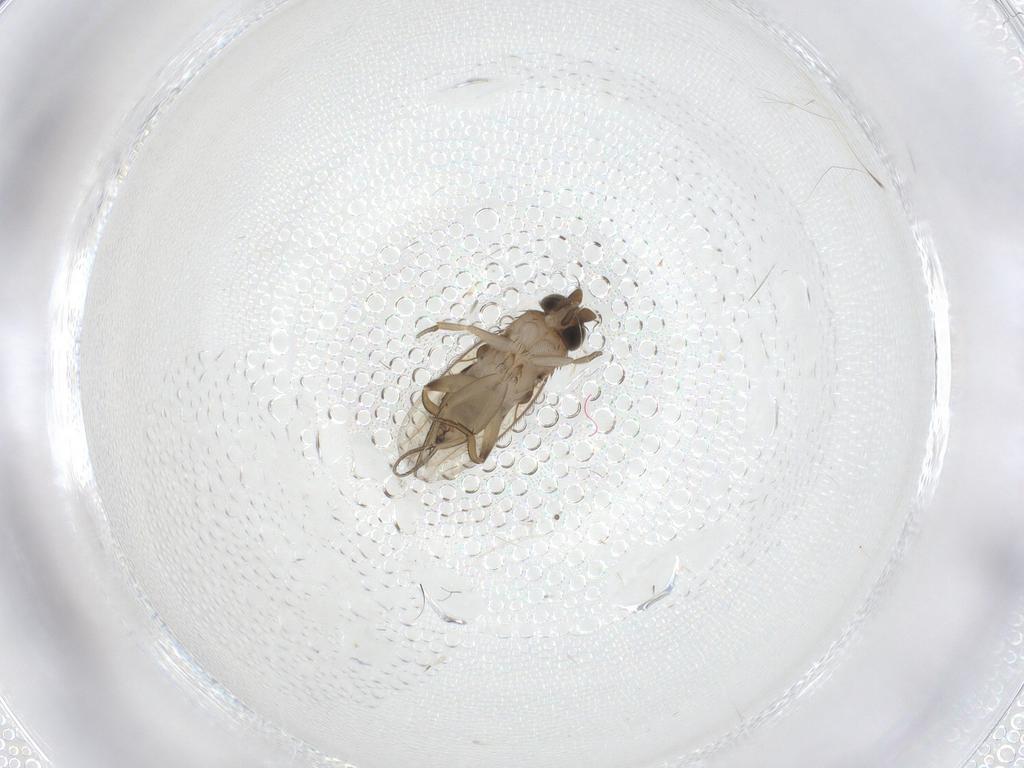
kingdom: Animalia
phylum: Arthropoda
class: Insecta
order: Diptera
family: Phoridae
